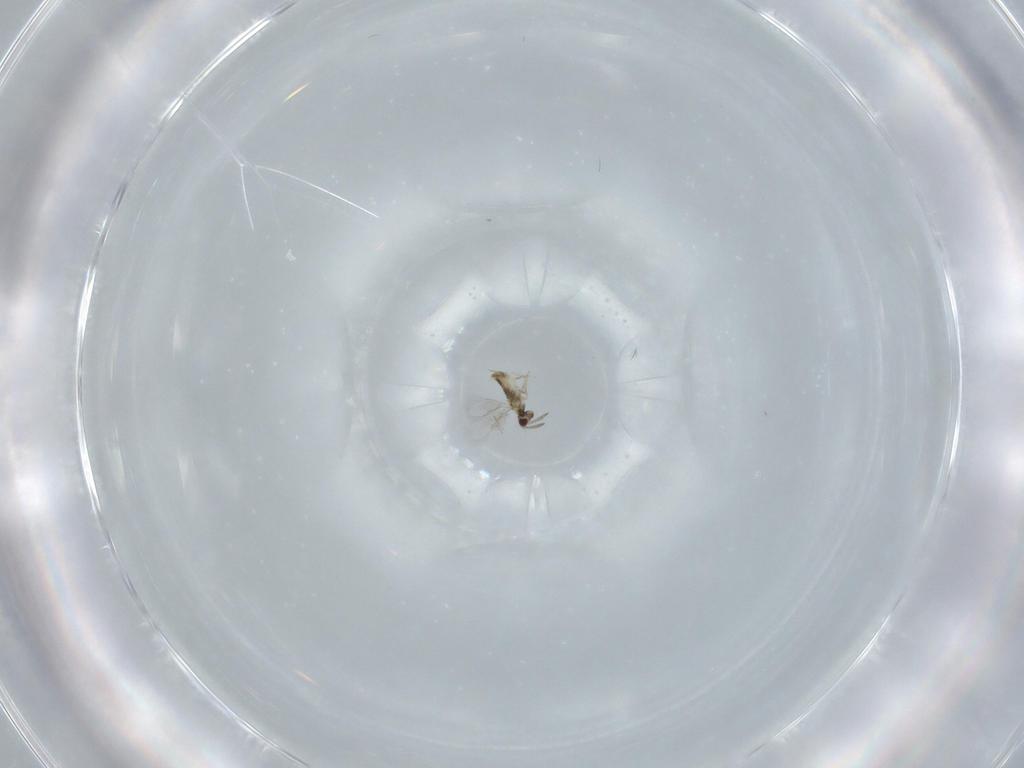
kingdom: Animalia
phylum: Arthropoda
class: Insecta
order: Hymenoptera
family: Aphelinidae
